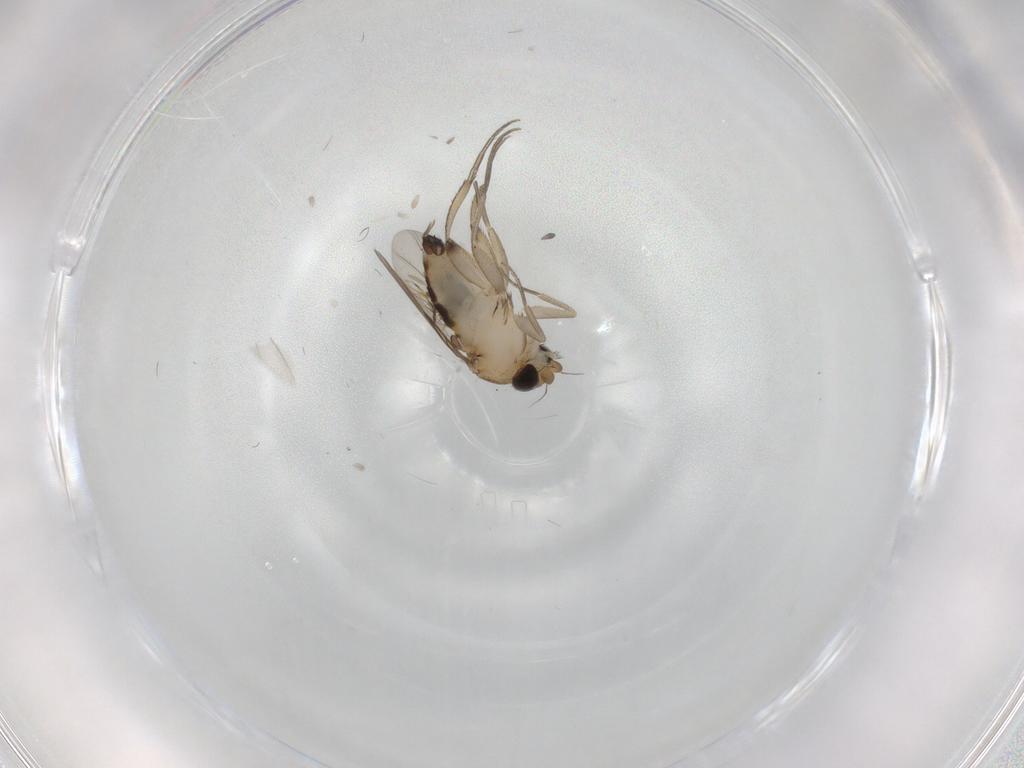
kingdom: Animalia
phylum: Arthropoda
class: Insecta
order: Diptera
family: Phoridae
